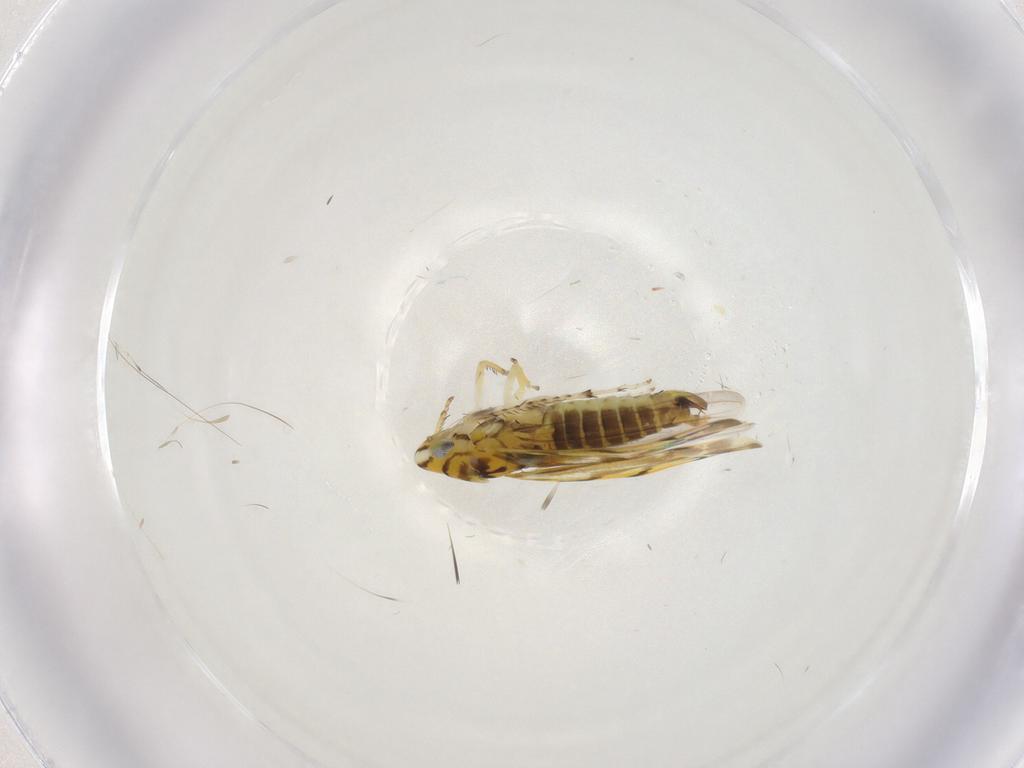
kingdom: Animalia
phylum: Arthropoda
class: Insecta
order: Hemiptera
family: Cicadellidae
